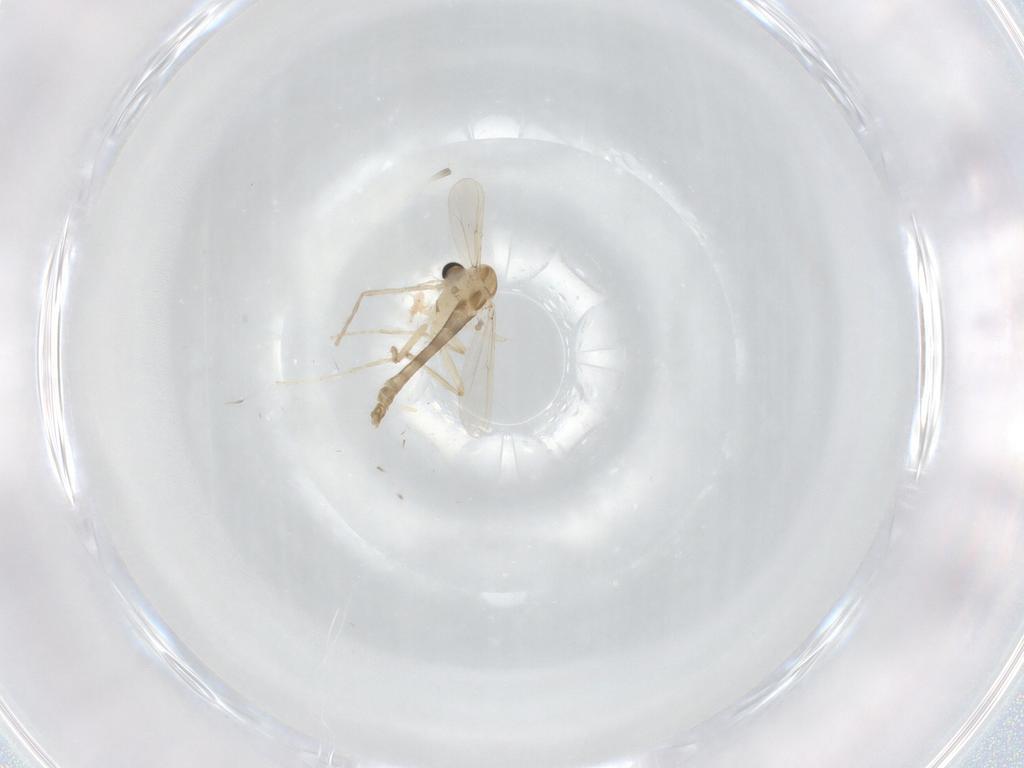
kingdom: Animalia
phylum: Arthropoda
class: Insecta
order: Diptera
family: Chironomidae
